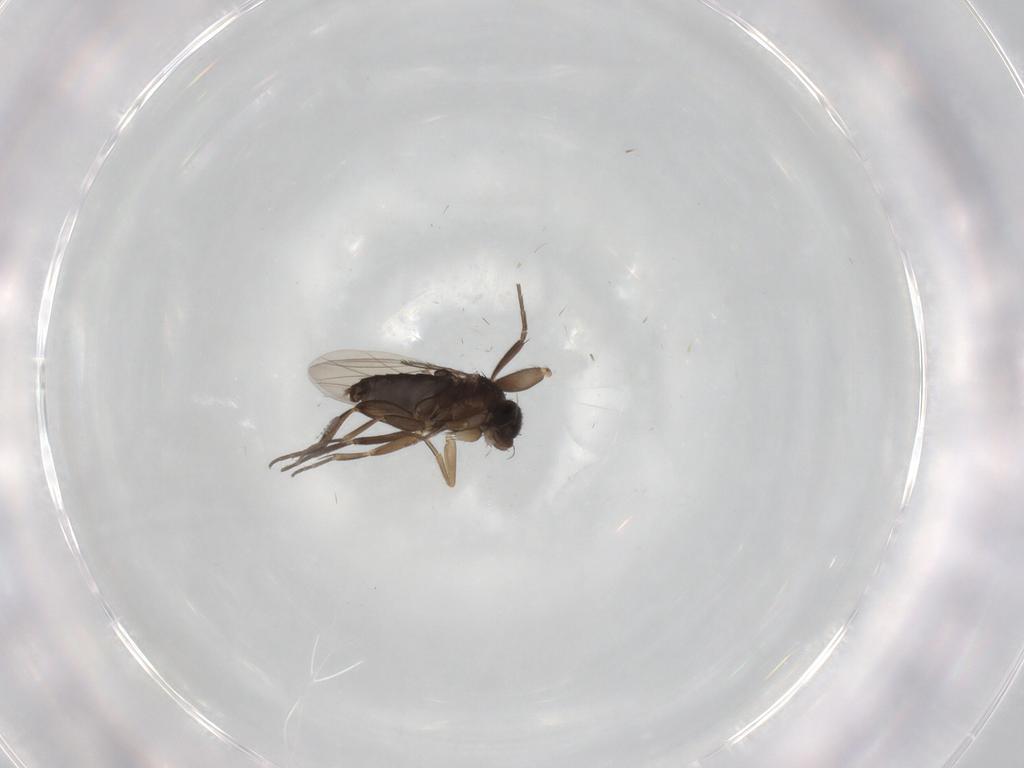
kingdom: Animalia
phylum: Arthropoda
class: Insecta
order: Diptera
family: Phoridae
